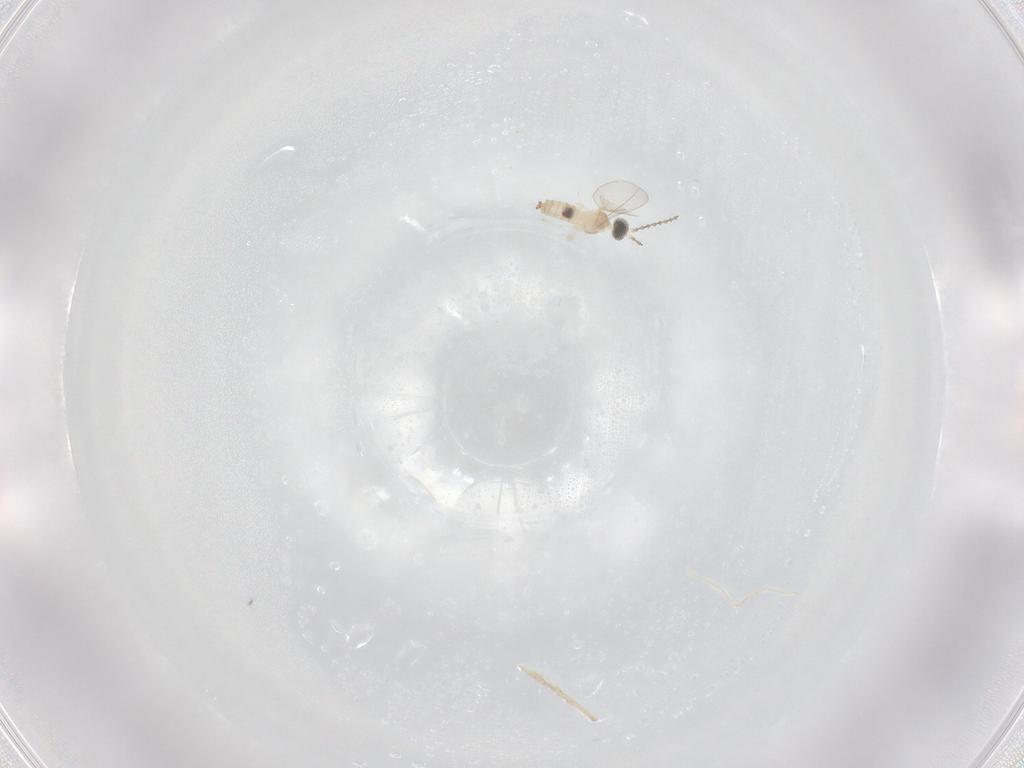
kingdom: Animalia
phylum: Arthropoda
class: Insecta
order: Diptera
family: Cecidomyiidae
